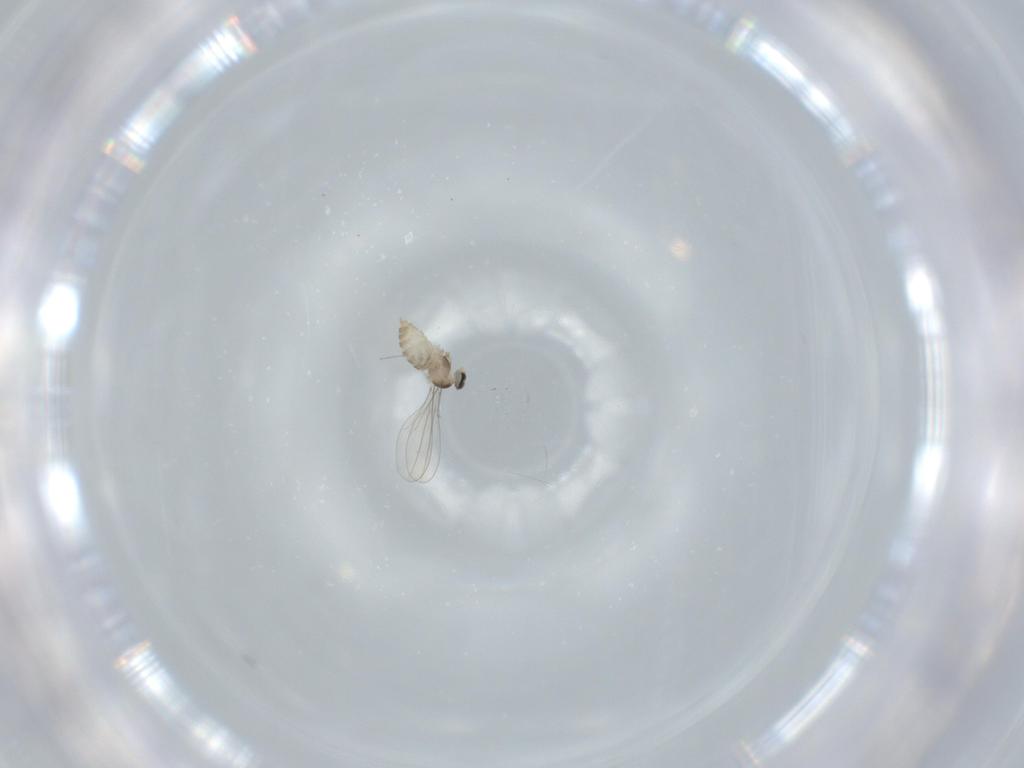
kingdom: Animalia
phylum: Arthropoda
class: Insecta
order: Diptera
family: Cecidomyiidae
